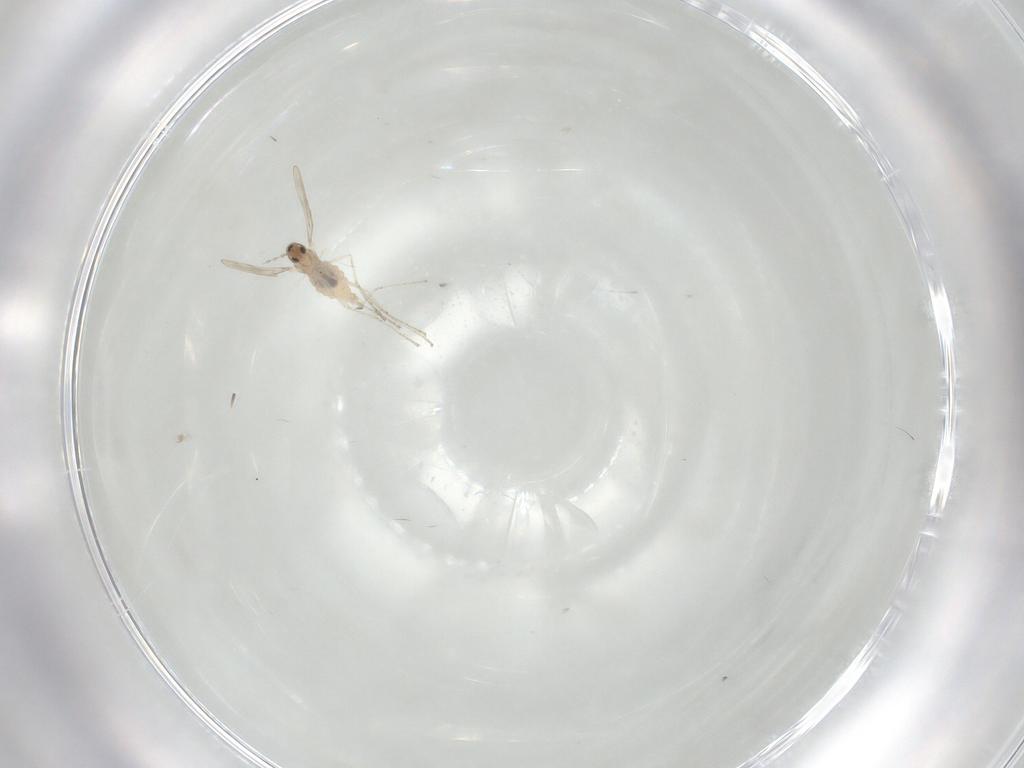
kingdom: Animalia
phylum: Arthropoda
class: Insecta
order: Diptera
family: Cecidomyiidae
